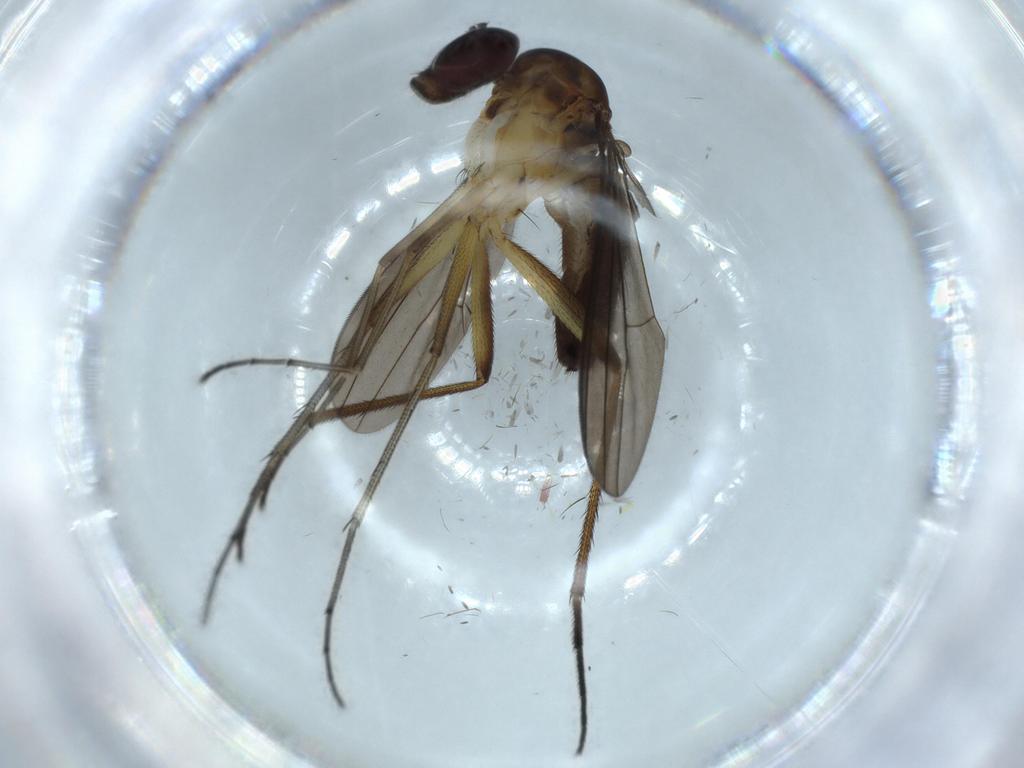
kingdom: Animalia
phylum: Arthropoda
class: Insecta
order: Diptera
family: Dolichopodidae
